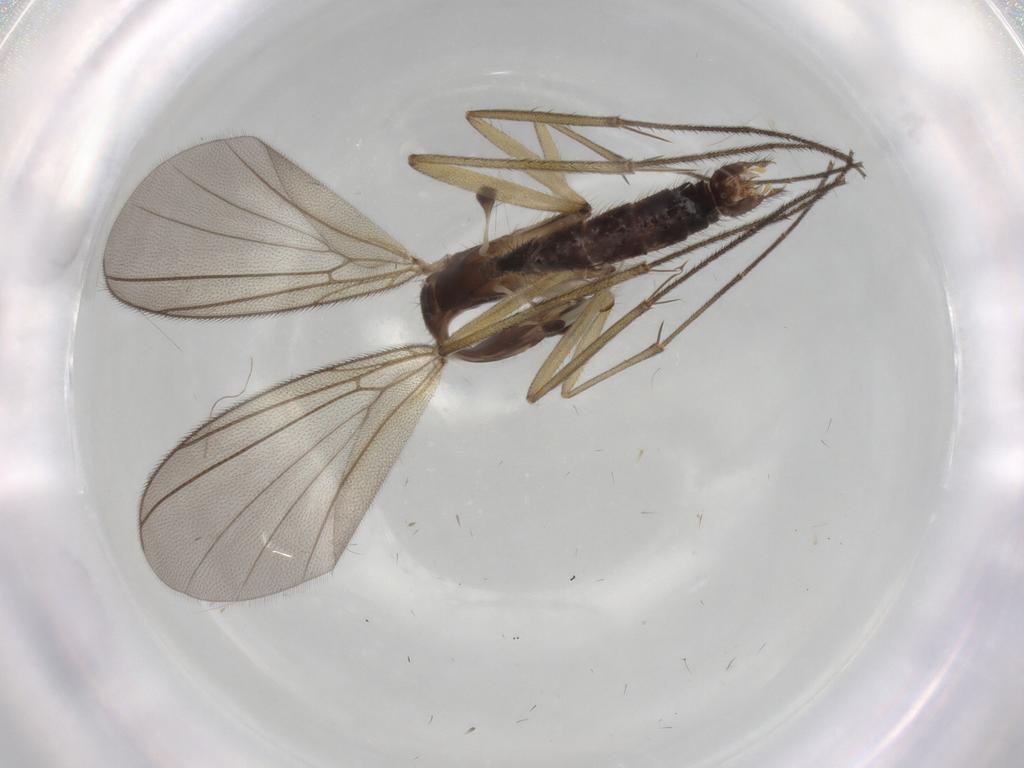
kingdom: Animalia
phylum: Arthropoda
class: Insecta
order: Diptera
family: Mycetophilidae
